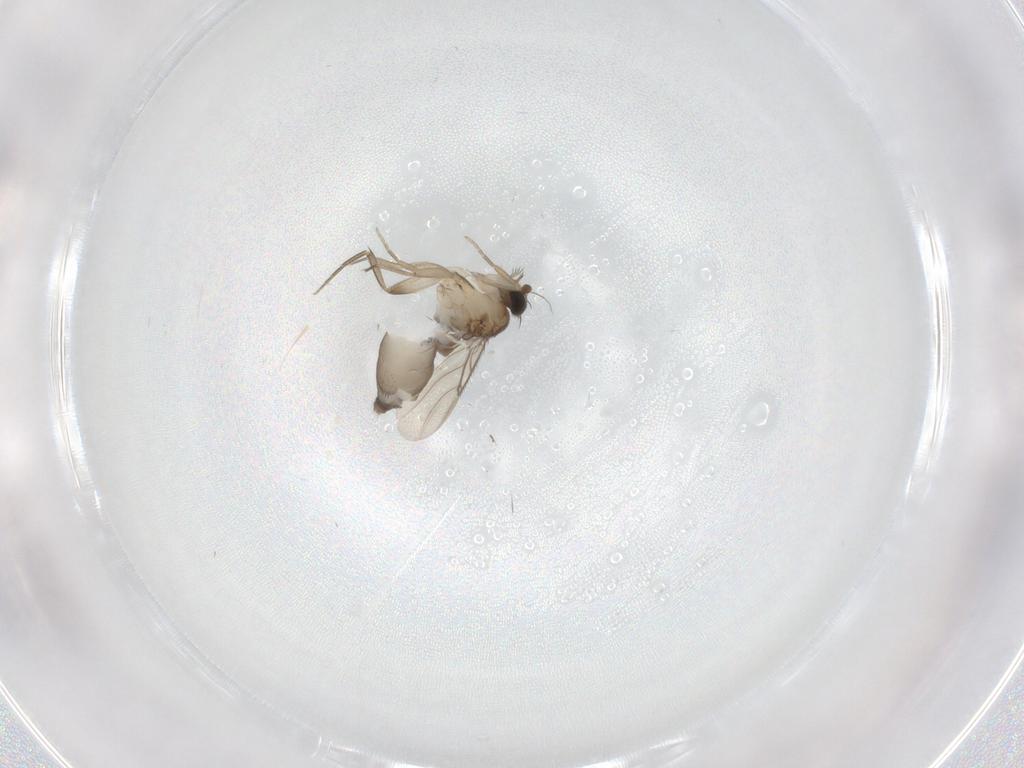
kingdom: Animalia
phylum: Arthropoda
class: Insecta
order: Diptera
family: Phoridae
